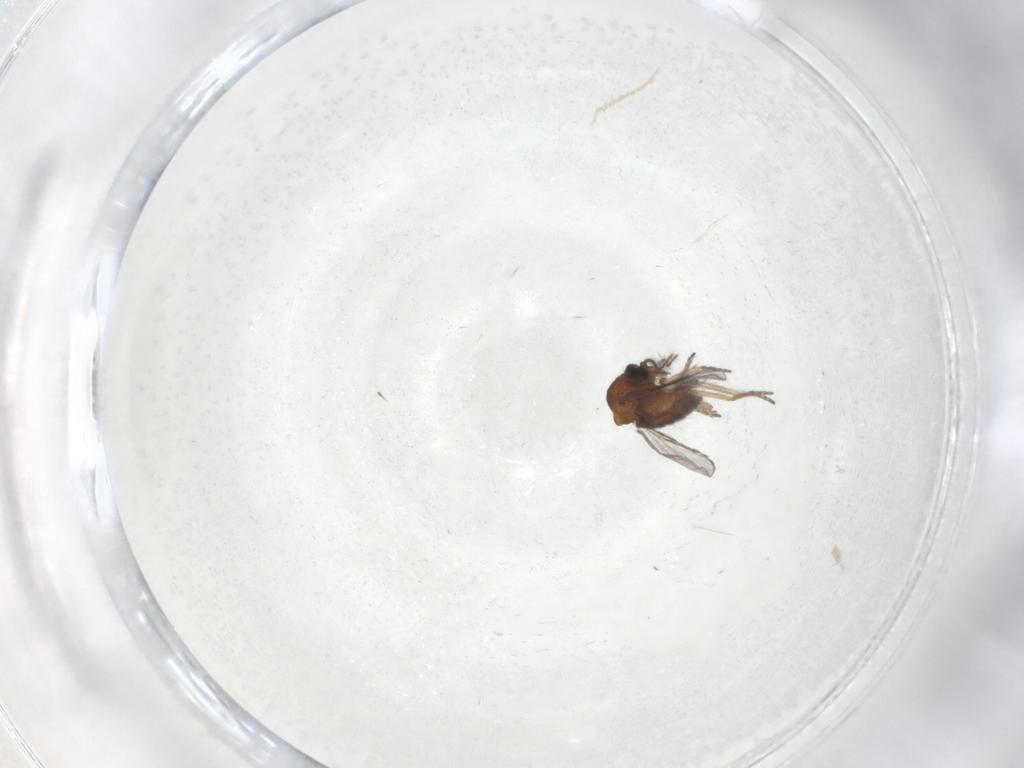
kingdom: Animalia
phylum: Arthropoda
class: Insecta
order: Diptera
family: Ceratopogonidae
